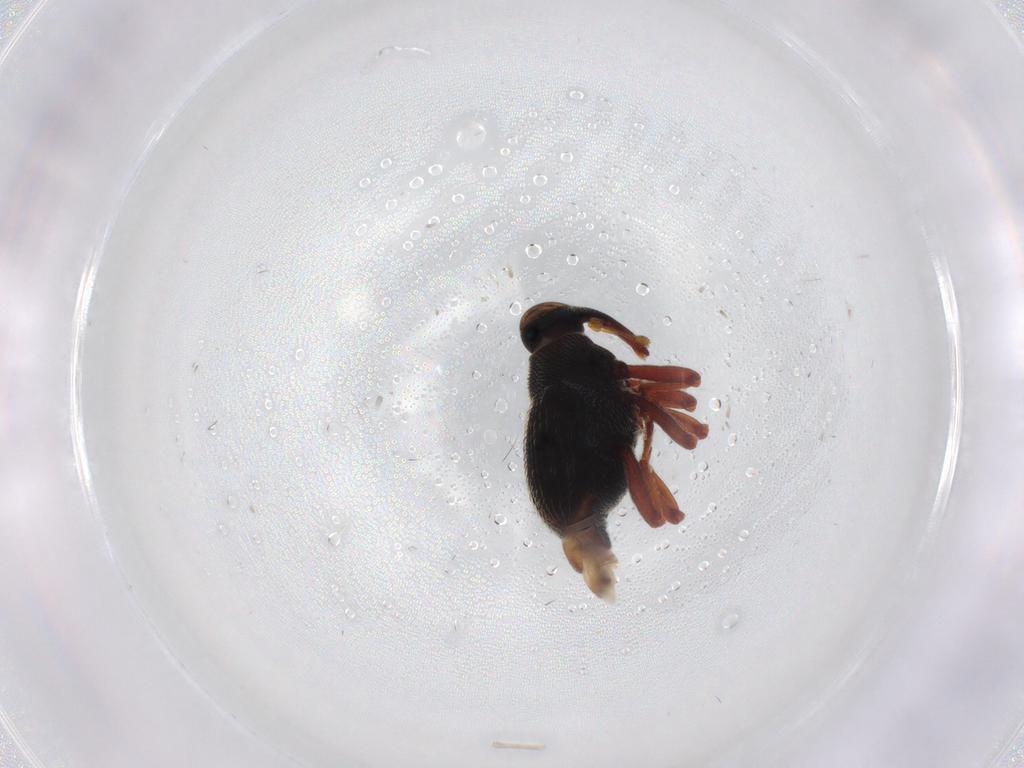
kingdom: Animalia
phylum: Arthropoda
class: Insecta
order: Coleoptera
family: Curculionidae
